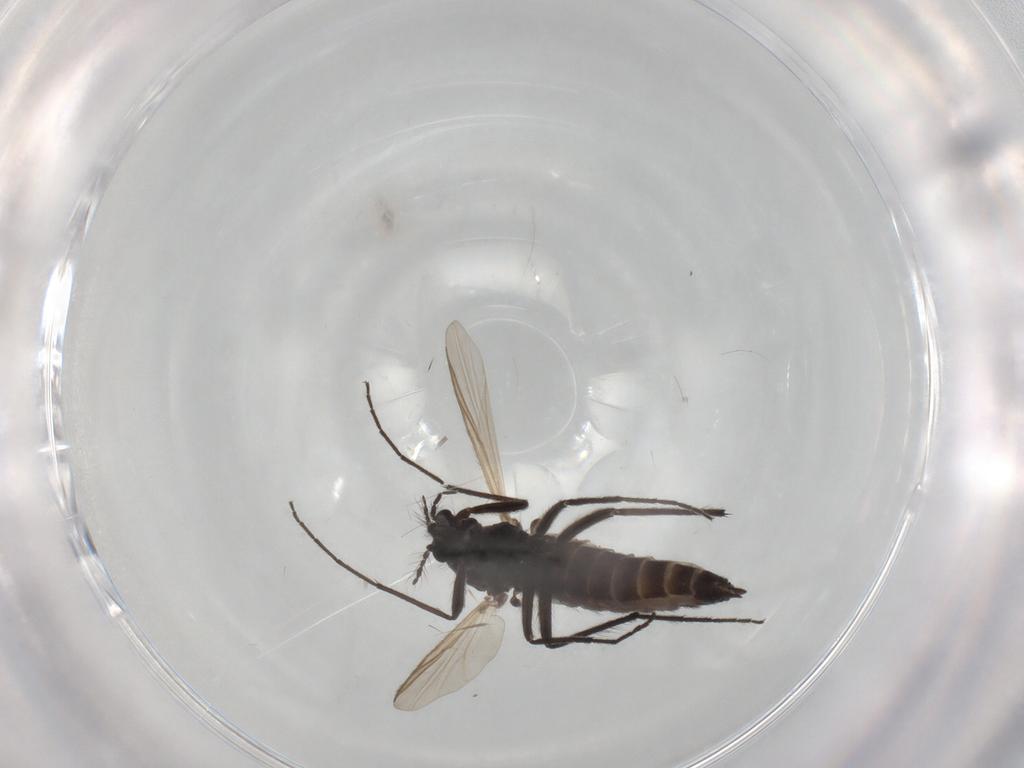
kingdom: Animalia
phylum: Arthropoda
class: Insecta
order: Diptera
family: Chironomidae
